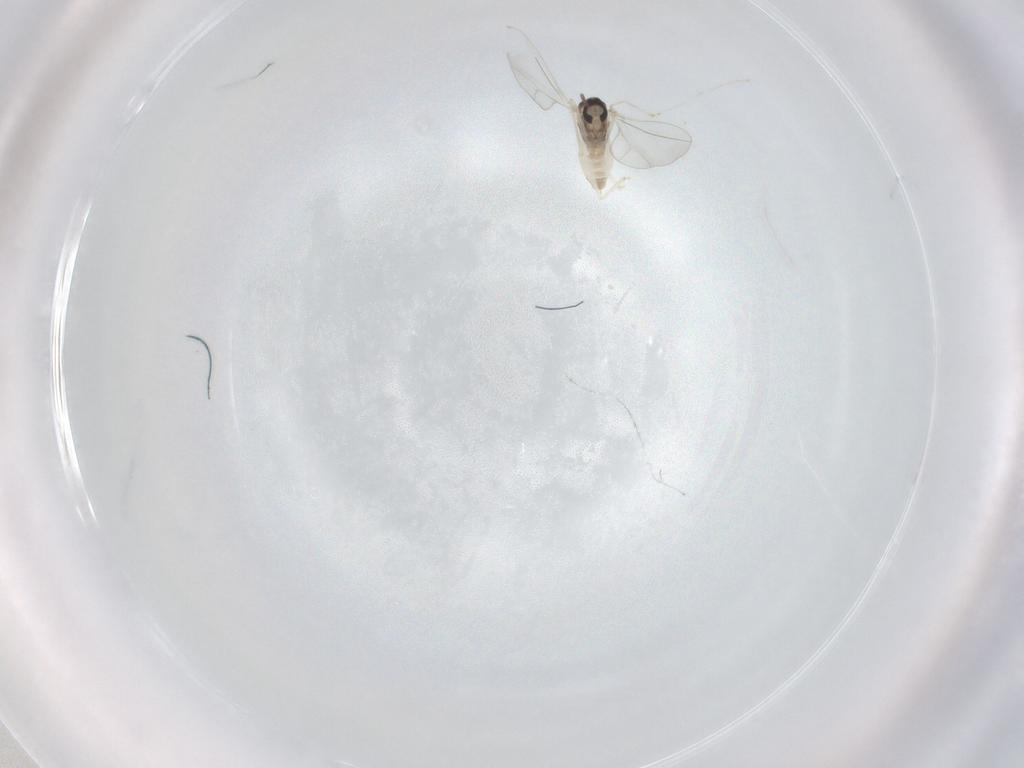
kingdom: Animalia
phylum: Arthropoda
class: Insecta
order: Diptera
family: Cecidomyiidae
